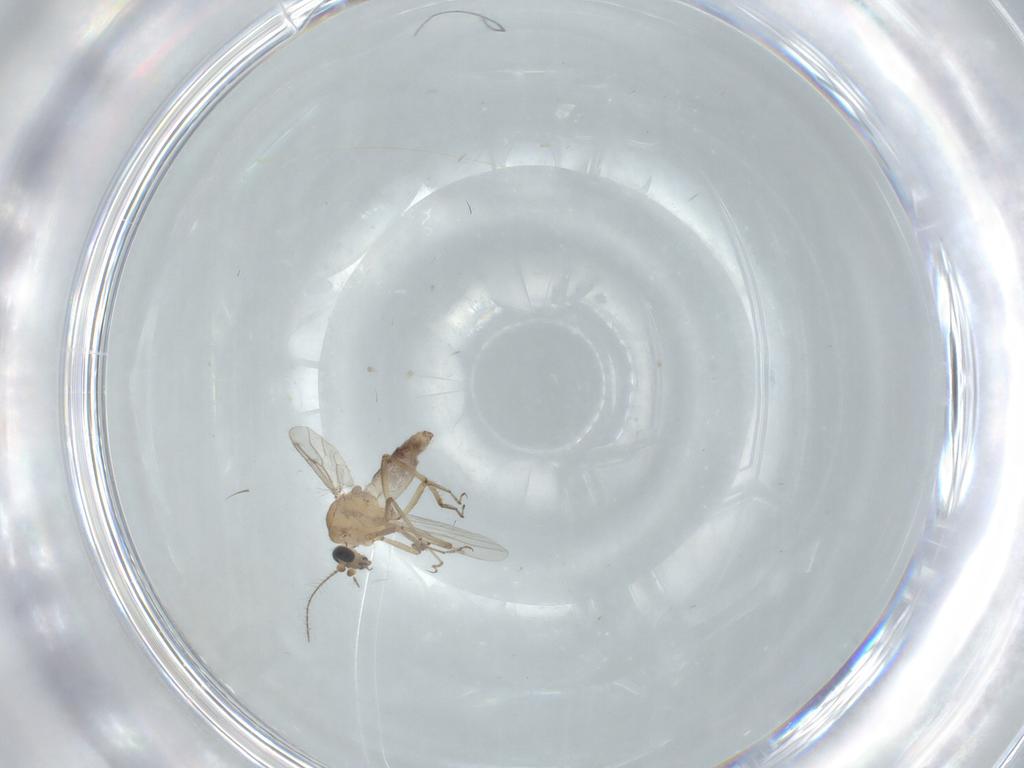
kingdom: Animalia
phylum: Arthropoda
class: Insecta
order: Diptera
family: Ceratopogonidae
